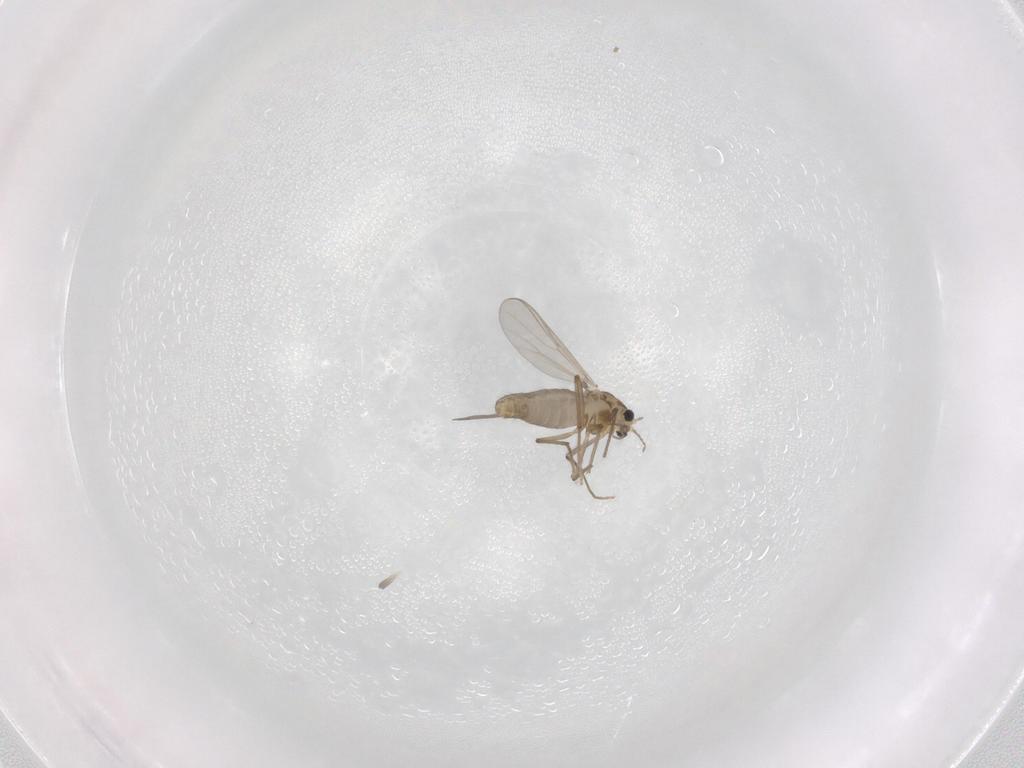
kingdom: Animalia
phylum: Arthropoda
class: Insecta
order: Diptera
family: Chironomidae
